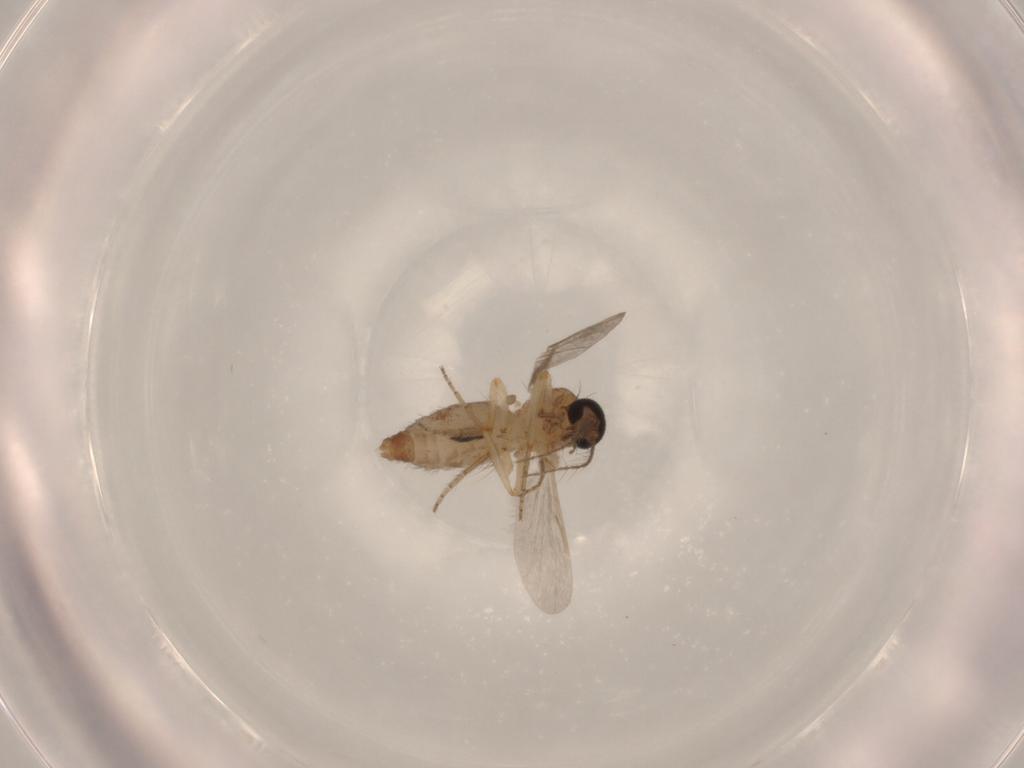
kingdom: Animalia
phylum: Arthropoda
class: Insecta
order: Diptera
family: Ceratopogonidae
